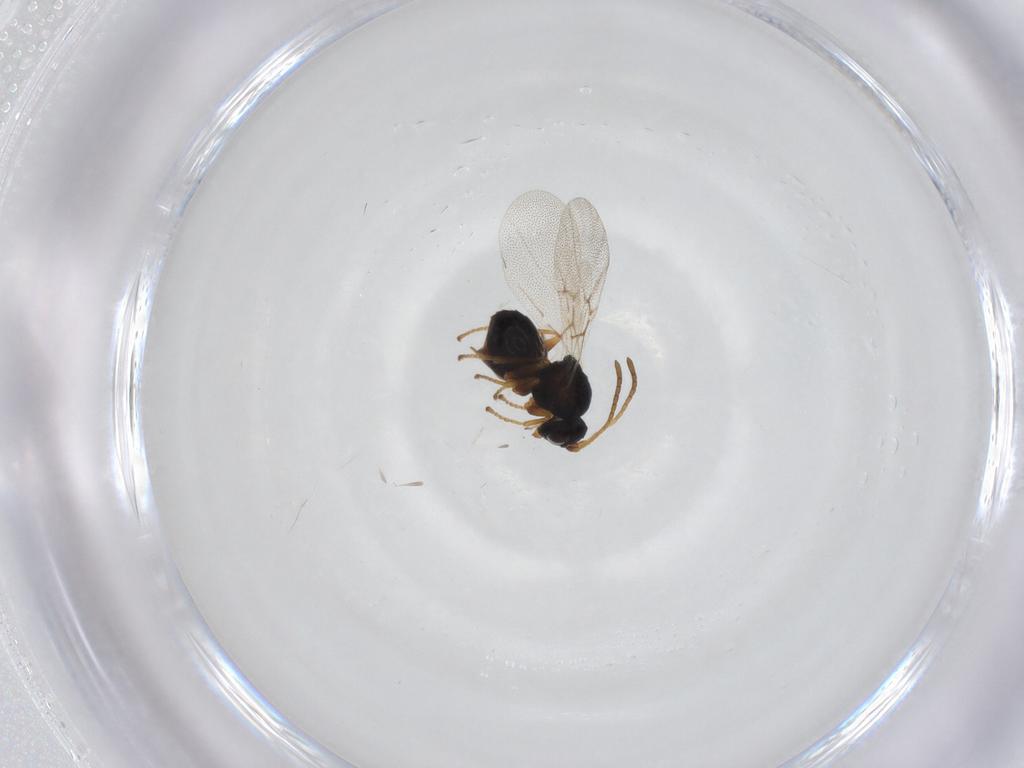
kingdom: Animalia
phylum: Arthropoda
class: Insecta
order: Hymenoptera
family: Cynipidae
